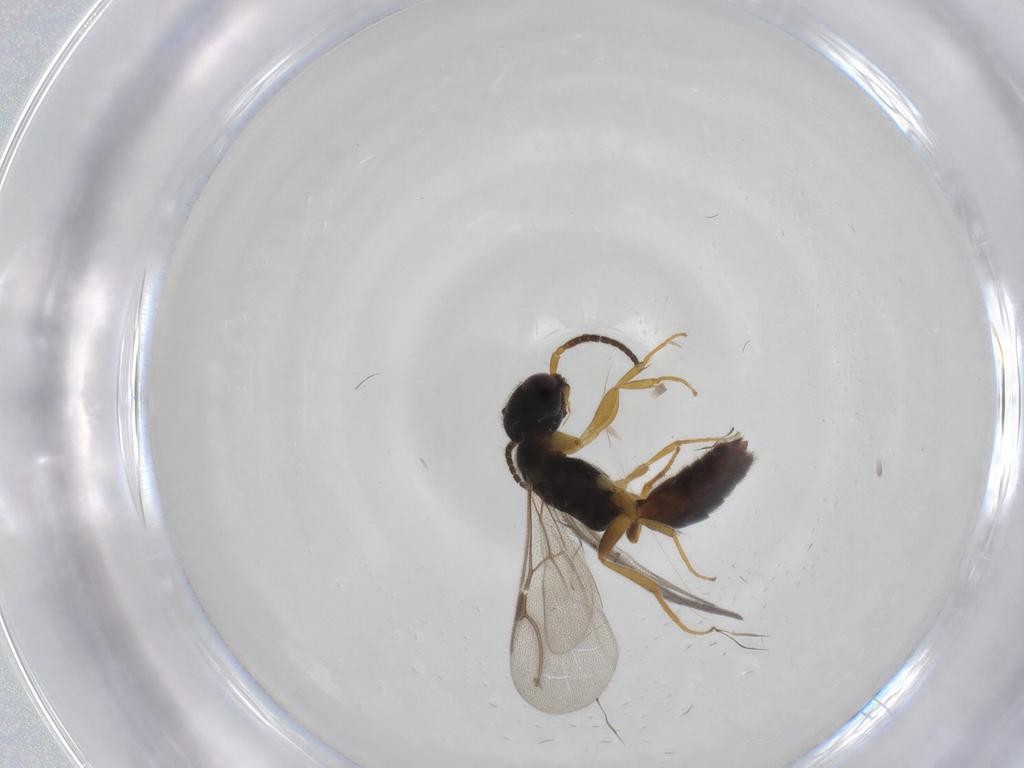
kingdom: Animalia
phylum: Arthropoda
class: Insecta
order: Hymenoptera
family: Bethylidae
